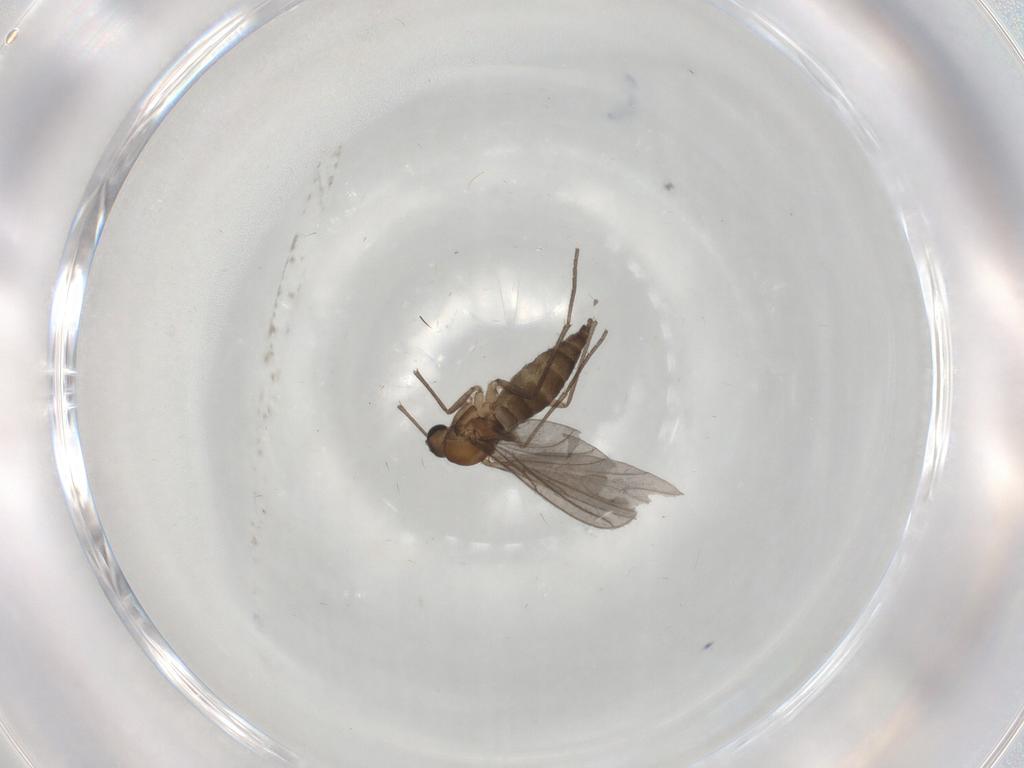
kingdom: Animalia
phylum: Arthropoda
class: Insecta
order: Diptera
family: Sciaridae
